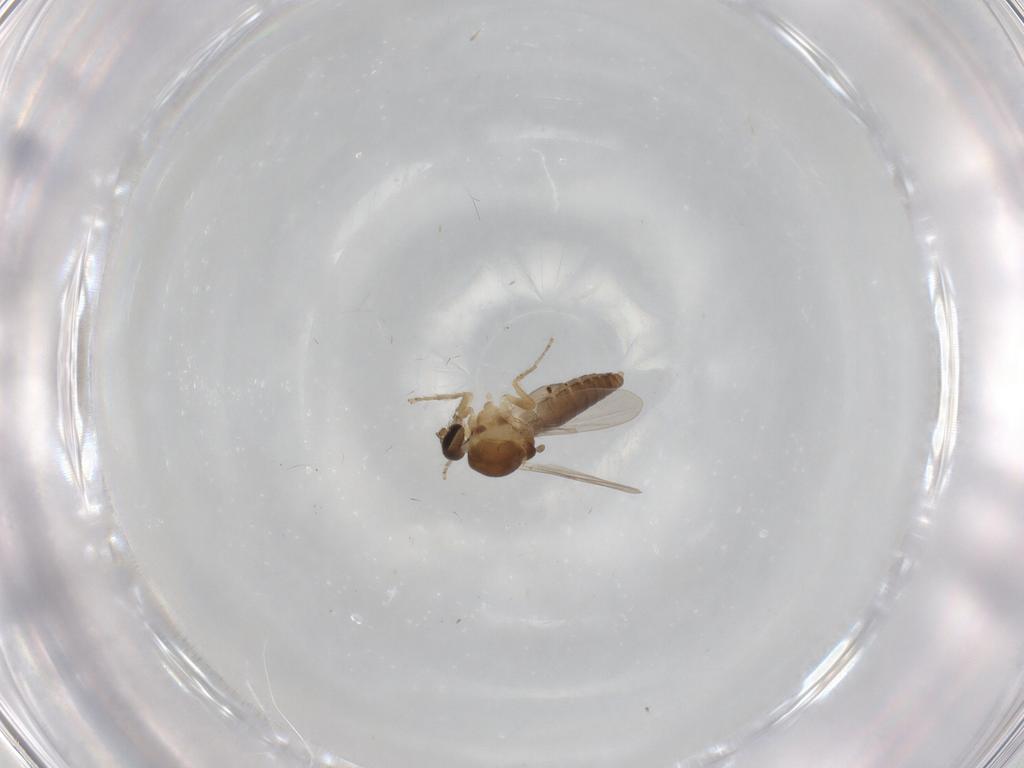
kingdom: Animalia
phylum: Arthropoda
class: Insecta
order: Diptera
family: Ceratopogonidae
